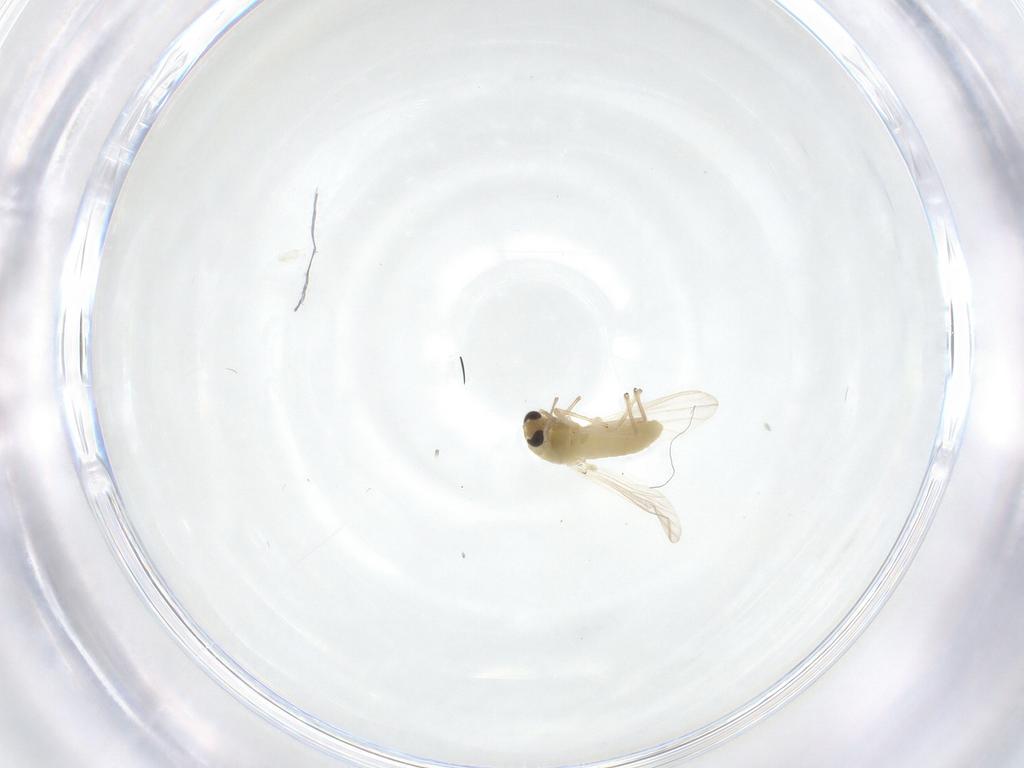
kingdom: Animalia
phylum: Arthropoda
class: Insecta
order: Diptera
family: Chironomidae
